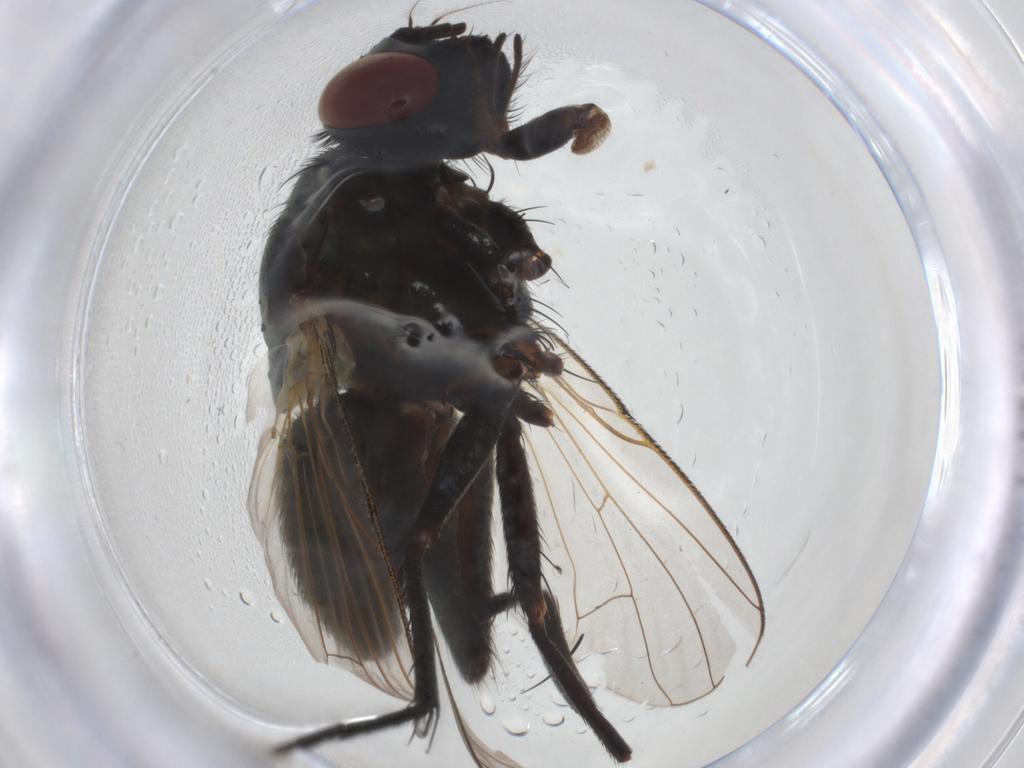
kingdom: Animalia
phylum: Arthropoda
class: Insecta
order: Diptera
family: Muscidae
